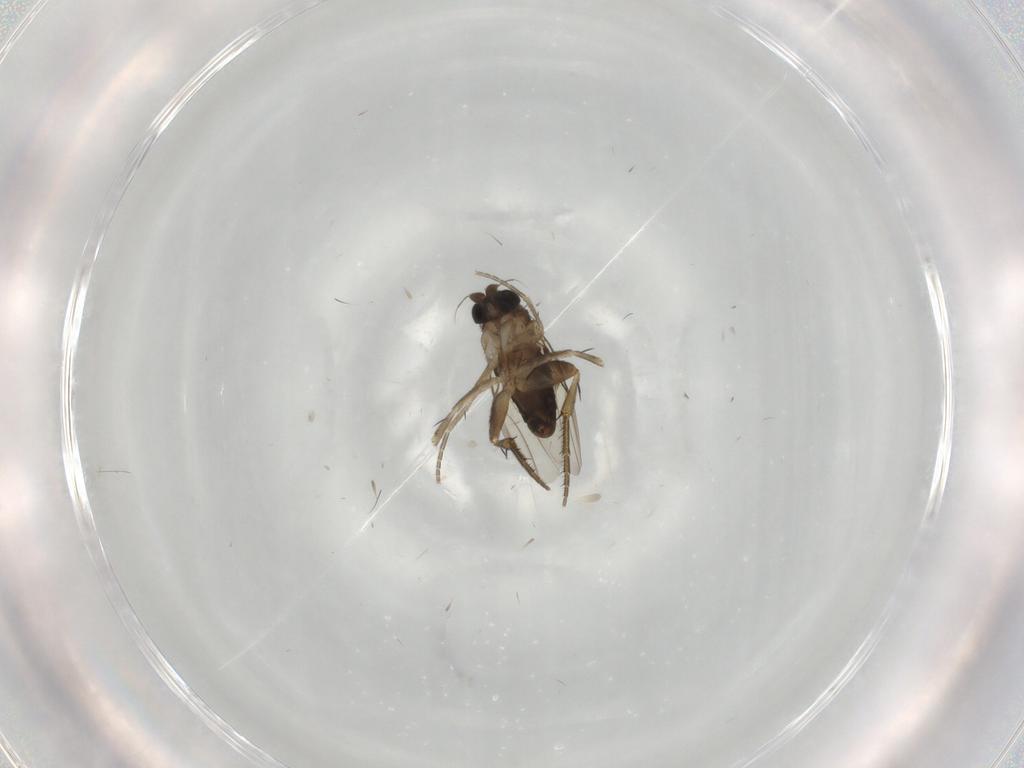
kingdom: Animalia
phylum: Arthropoda
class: Insecta
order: Diptera
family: Phoridae
